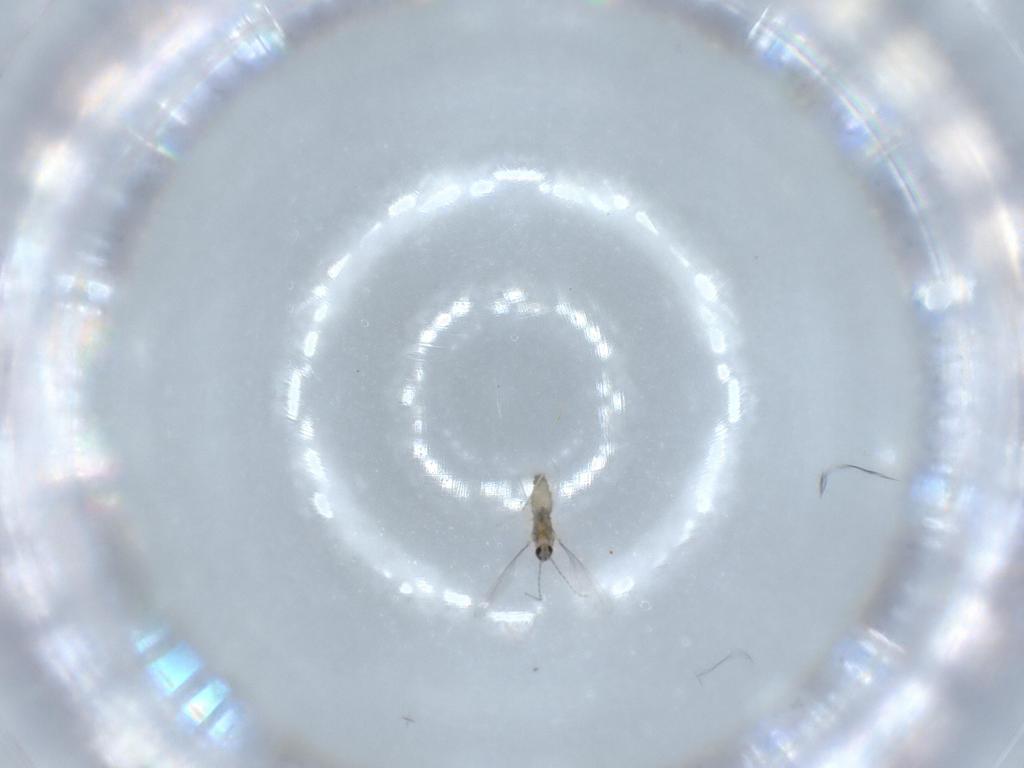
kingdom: Animalia
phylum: Arthropoda
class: Insecta
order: Diptera
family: Cecidomyiidae
